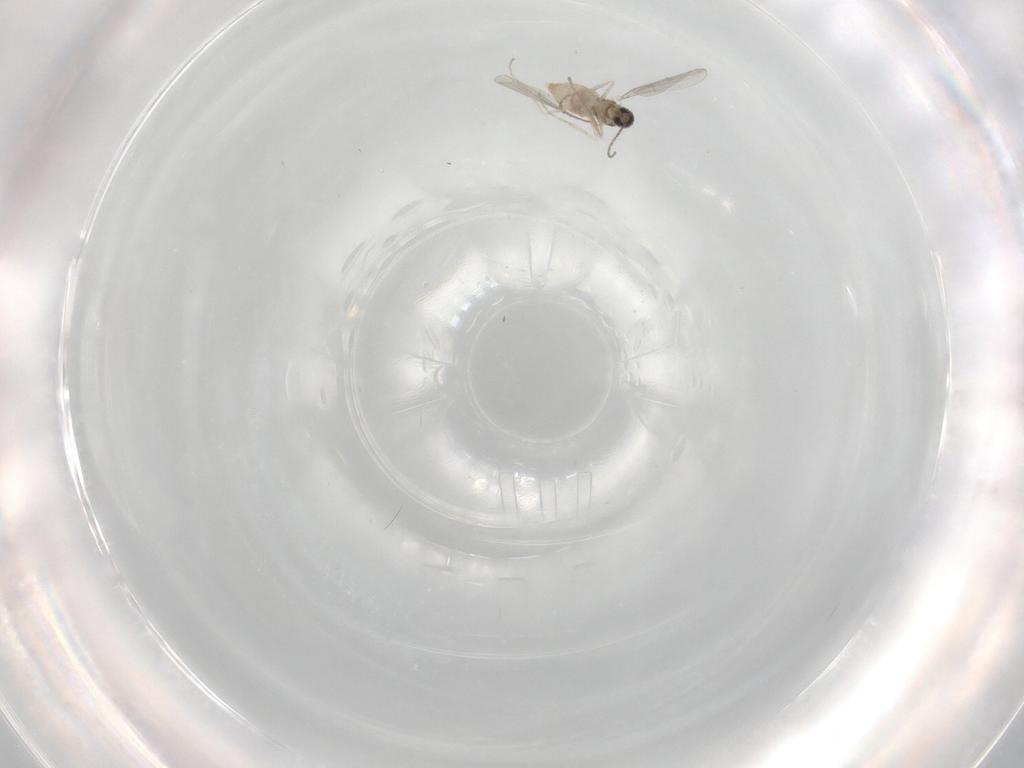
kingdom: Animalia
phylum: Arthropoda
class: Insecta
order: Diptera
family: Cecidomyiidae
